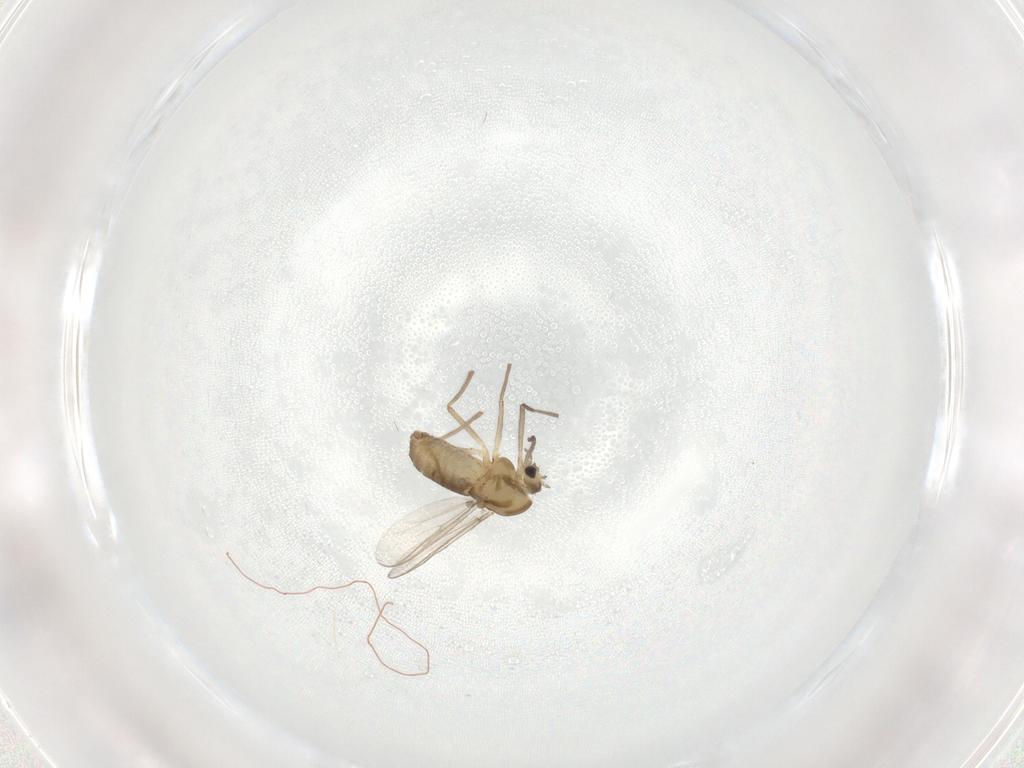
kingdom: Animalia
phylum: Arthropoda
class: Insecta
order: Diptera
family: Chironomidae
